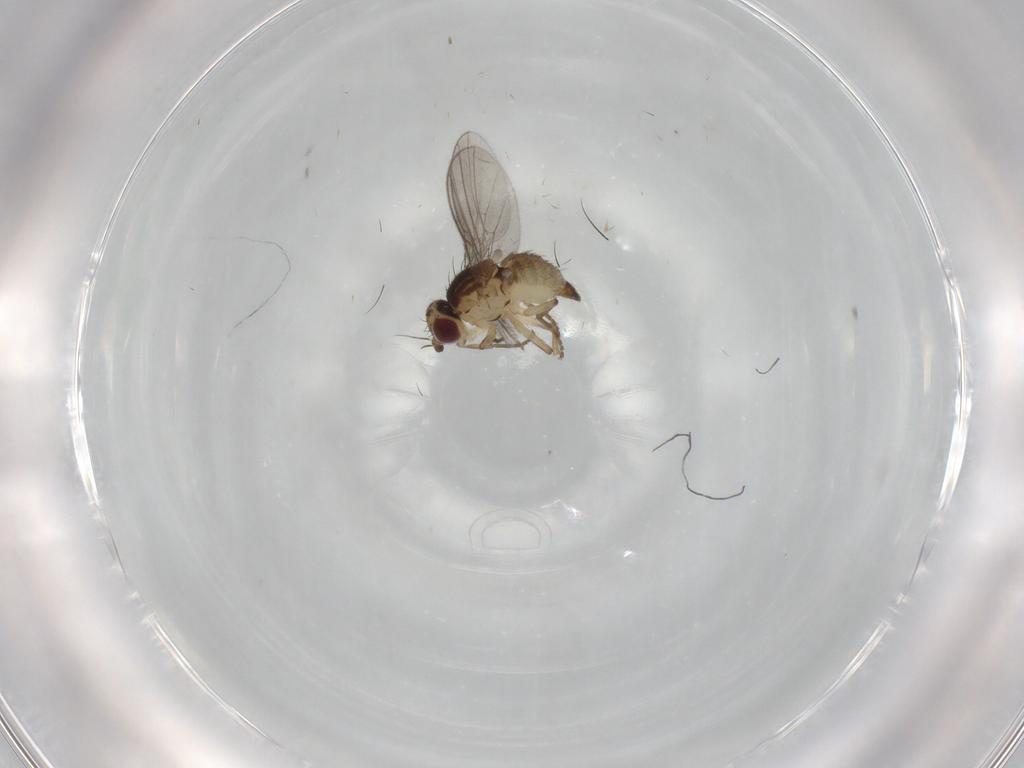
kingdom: Animalia
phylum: Arthropoda
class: Insecta
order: Diptera
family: Agromyzidae
